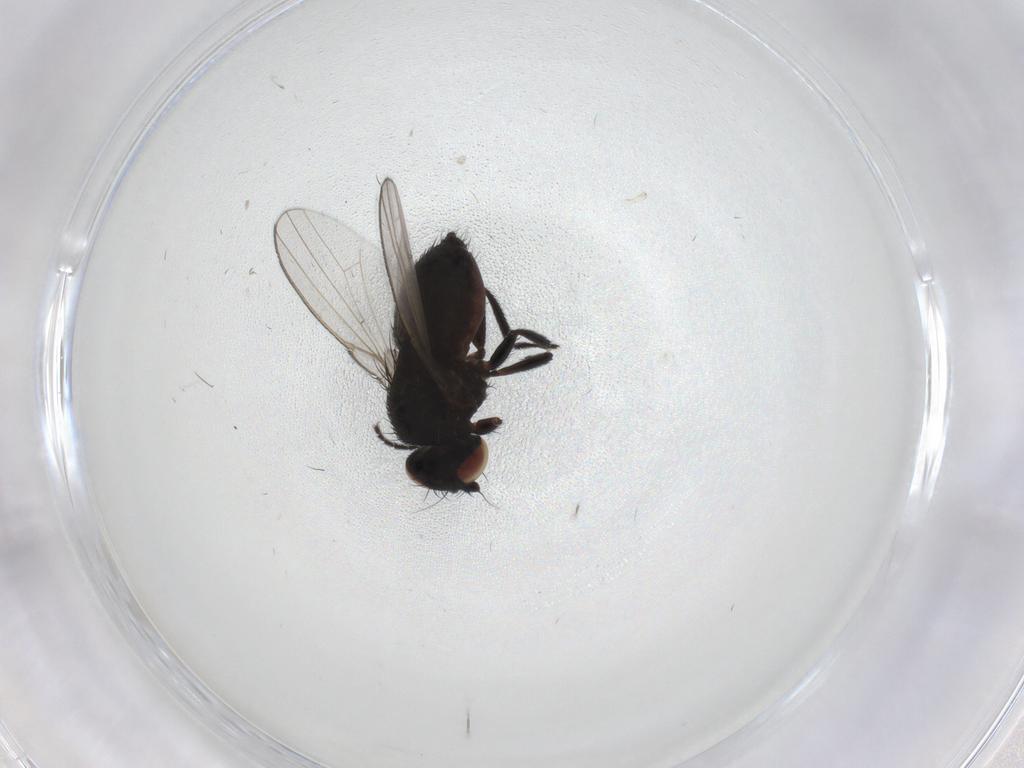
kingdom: Animalia
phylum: Arthropoda
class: Insecta
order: Diptera
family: Milichiidae
